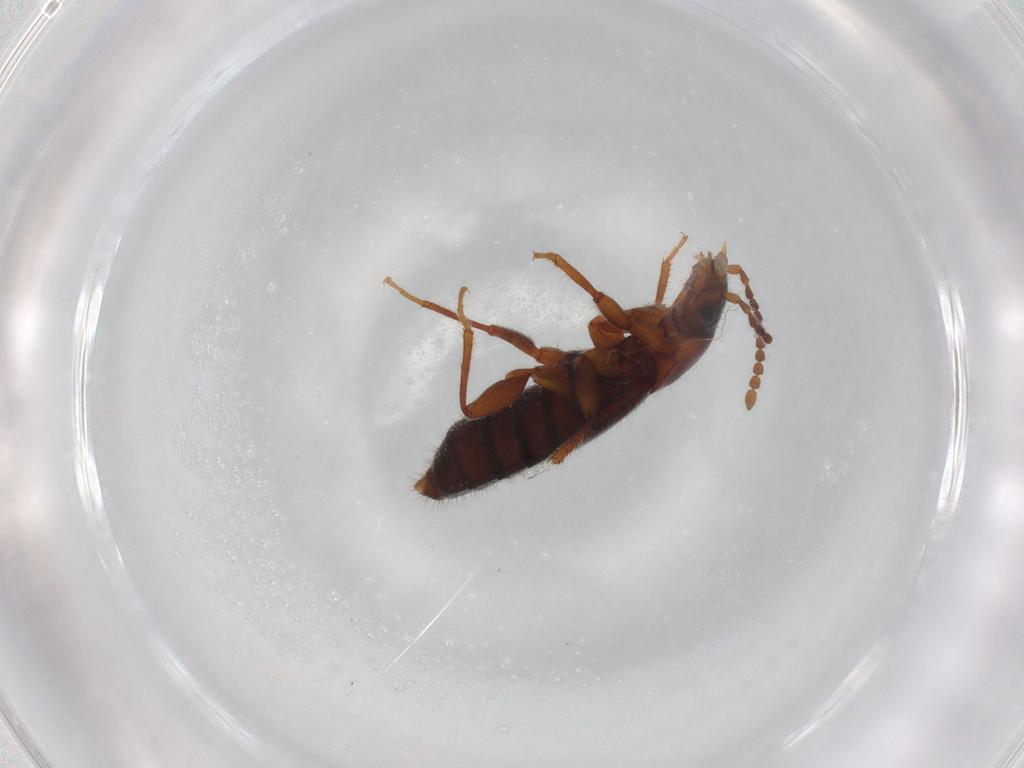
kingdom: Animalia
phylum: Arthropoda
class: Insecta
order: Coleoptera
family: Staphylinidae
